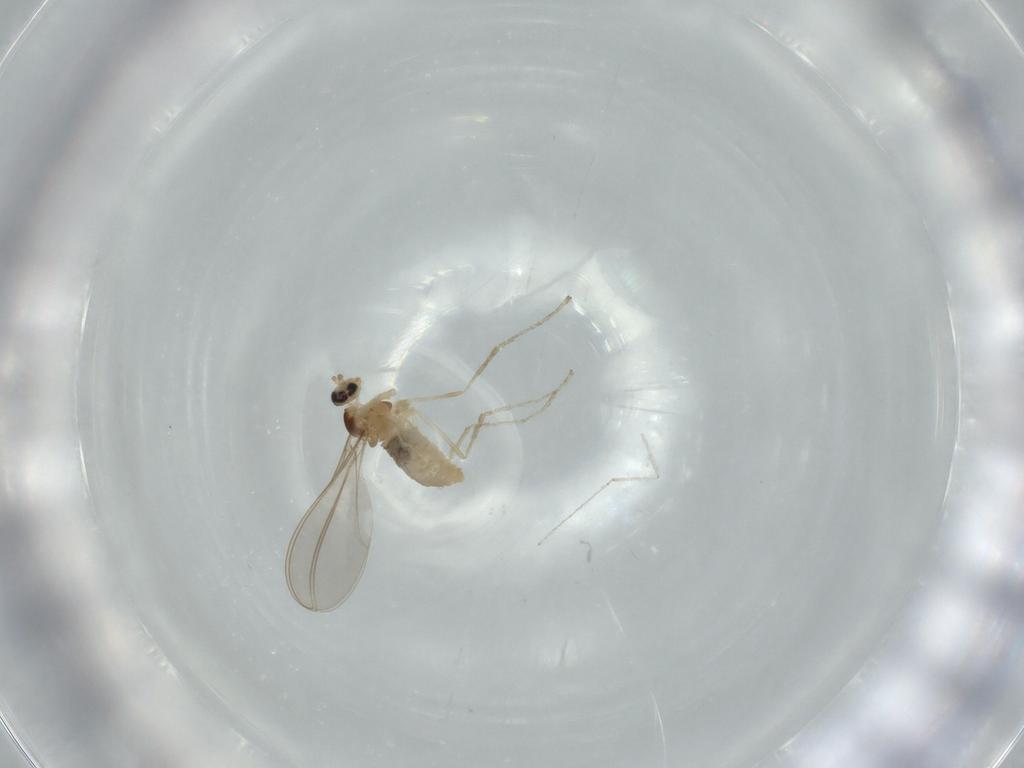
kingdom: Animalia
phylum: Arthropoda
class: Insecta
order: Diptera
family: Cecidomyiidae
